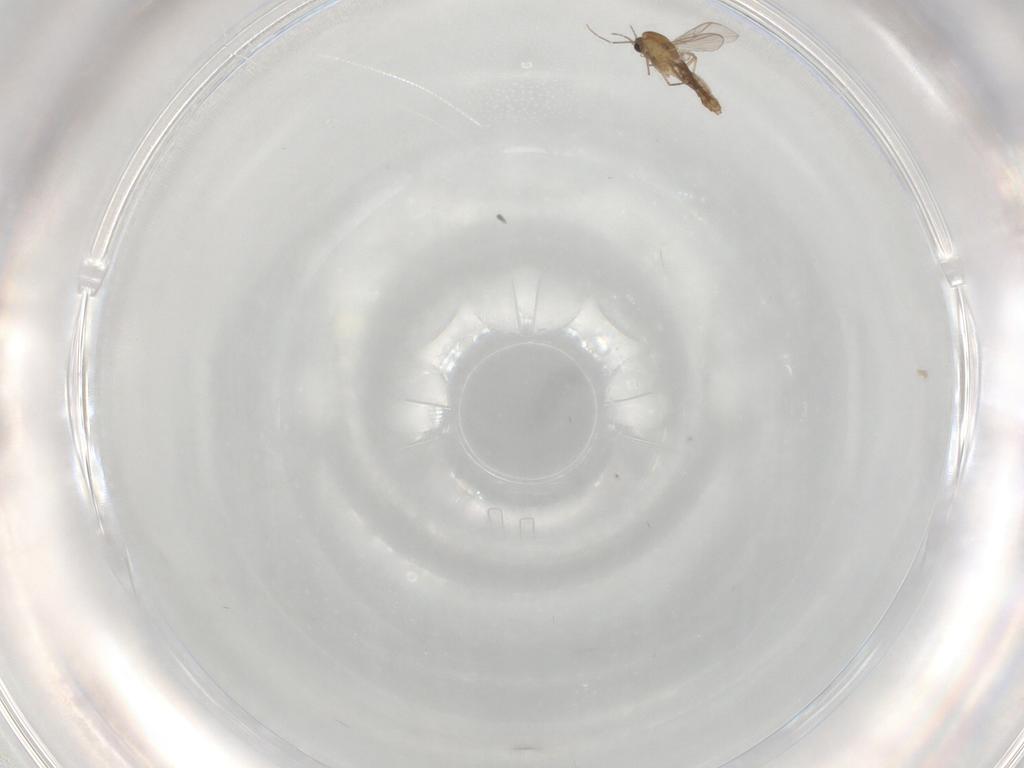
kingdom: Animalia
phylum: Arthropoda
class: Insecta
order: Diptera
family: Chironomidae
